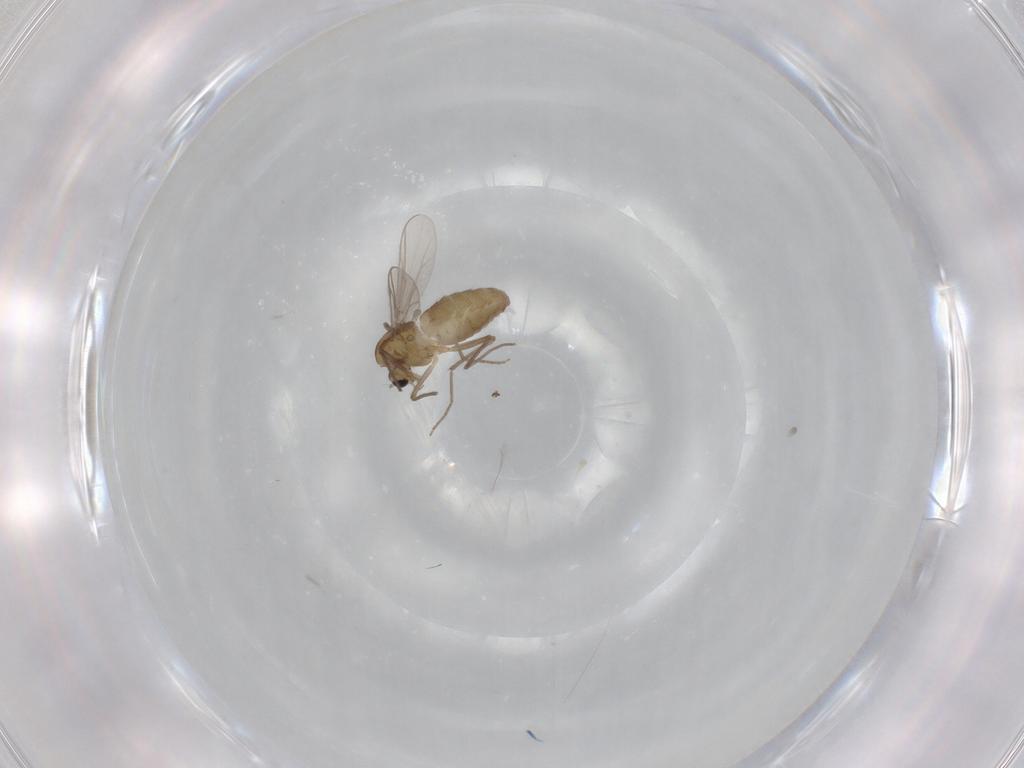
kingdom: Animalia
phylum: Arthropoda
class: Insecta
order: Diptera
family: Chironomidae
